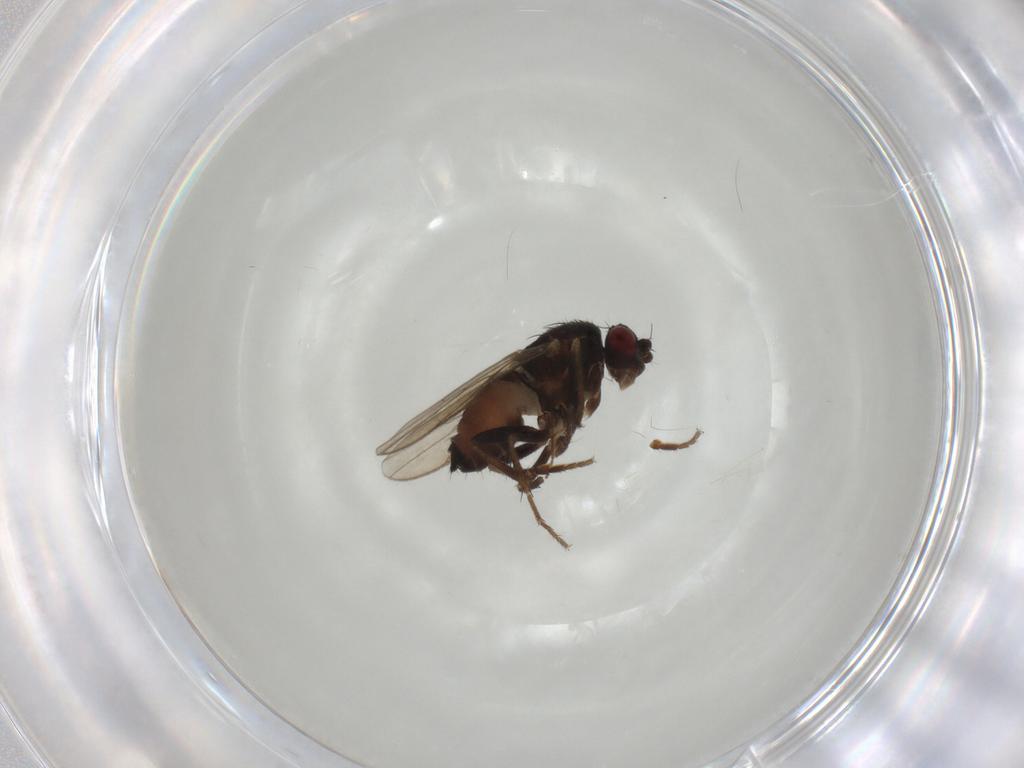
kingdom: Animalia
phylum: Arthropoda
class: Insecta
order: Diptera
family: Sphaeroceridae
